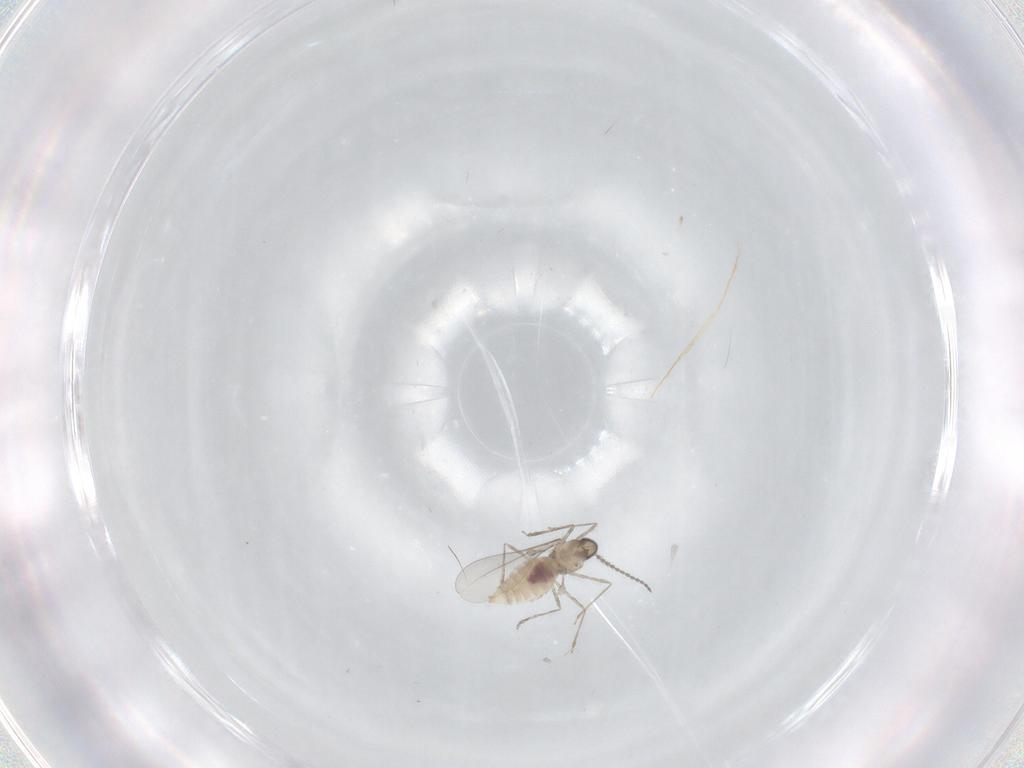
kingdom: Animalia
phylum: Arthropoda
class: Insecta
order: Diptera
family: Cecidomyiidae
